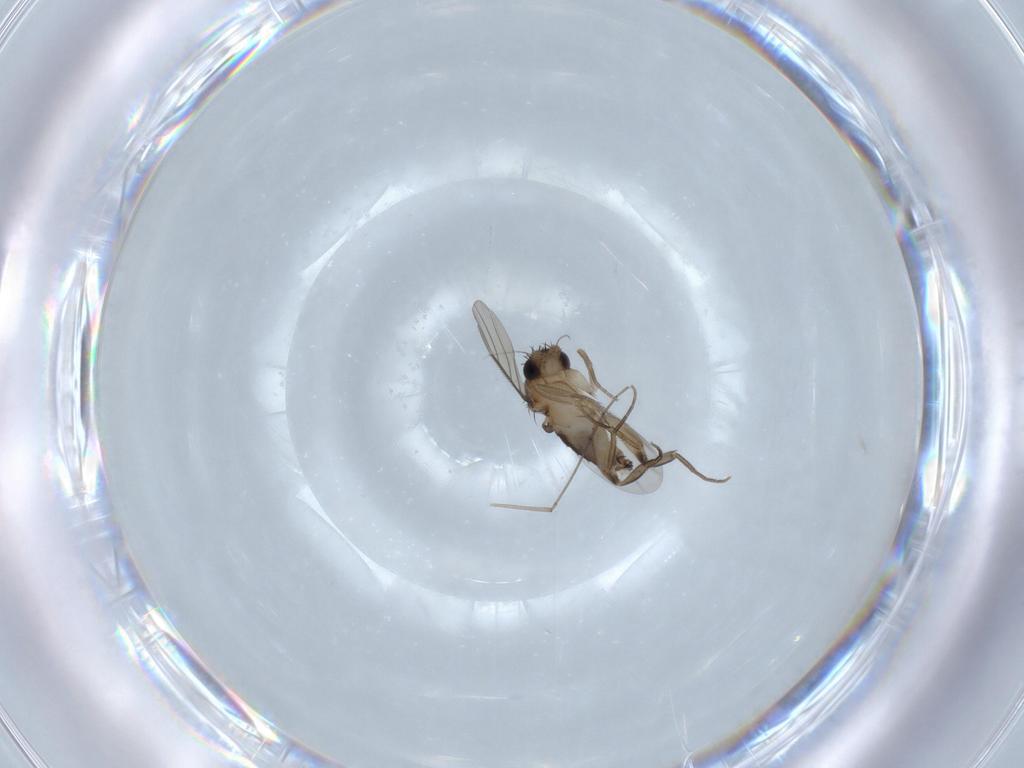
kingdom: Animalia
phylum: Arthropoda
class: Insecta
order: Diptera
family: Phoridae
